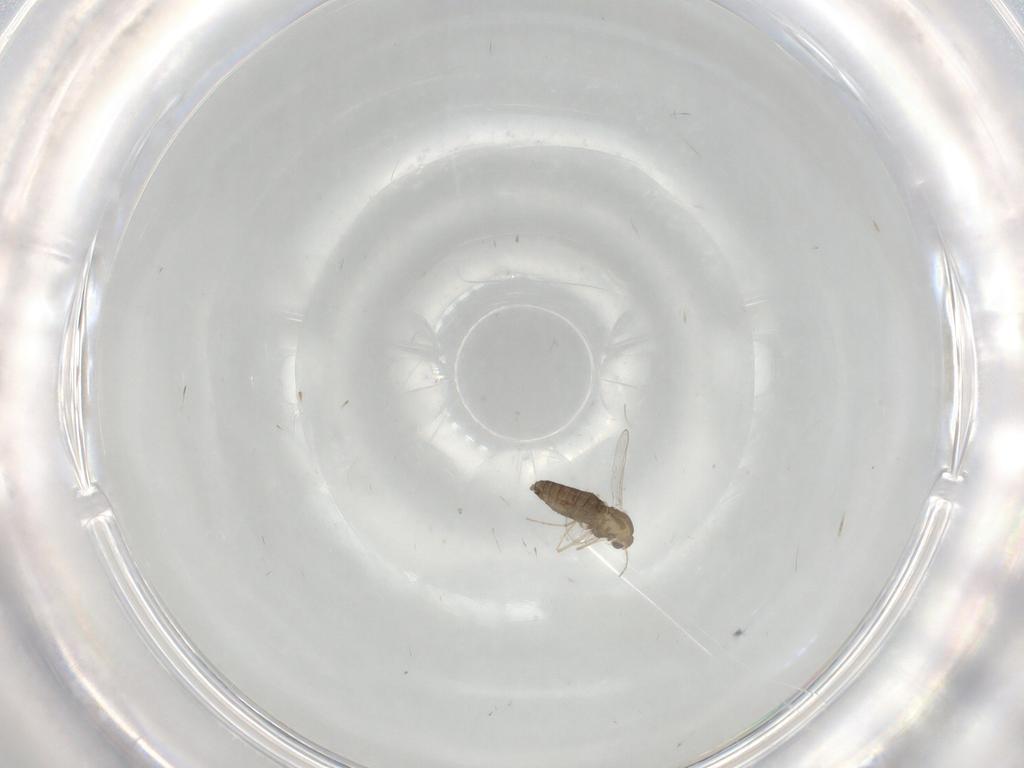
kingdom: Animalia
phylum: Arthropoda
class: Insecta
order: Diptera
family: Chironomidae
